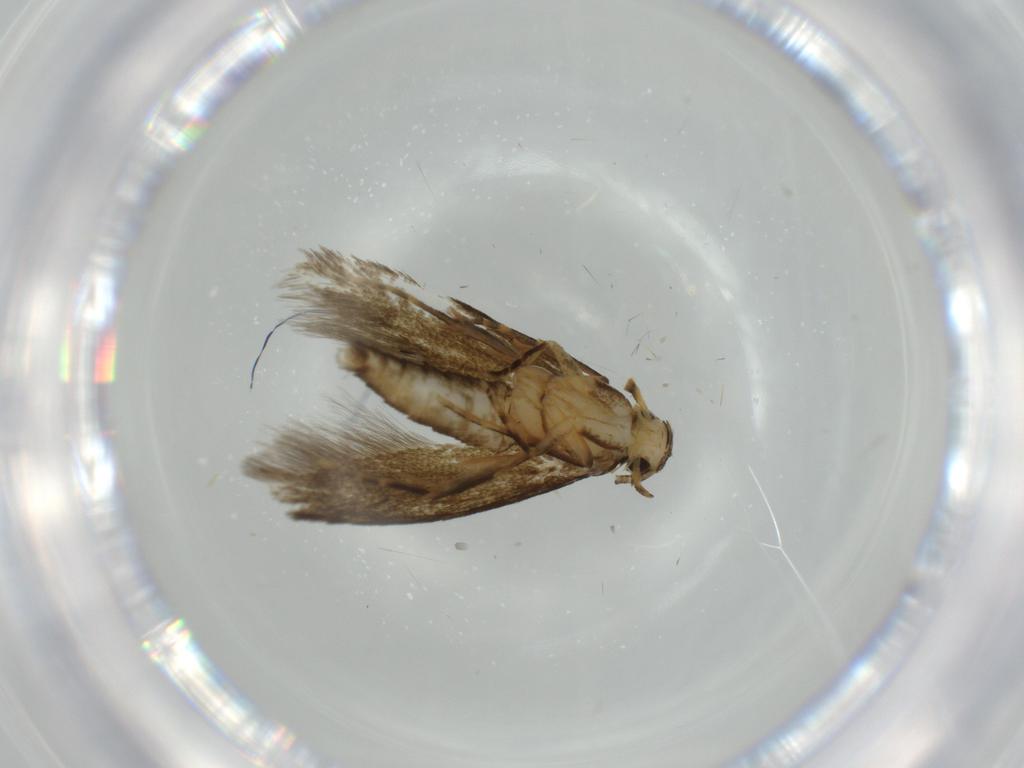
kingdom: Animalia
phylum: Arthropoda
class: Insecta
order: Lepidoptera
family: Tineidae
